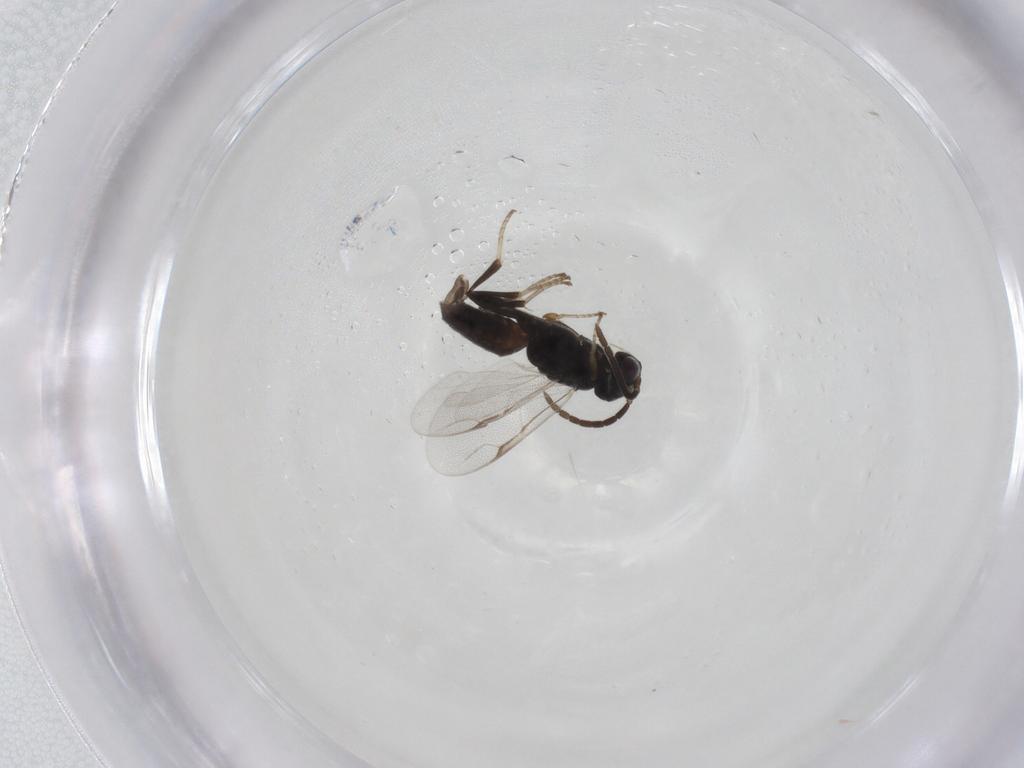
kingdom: Animalia
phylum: Arthropoda
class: Insecta
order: Hymenoptera
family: Dryinidae
